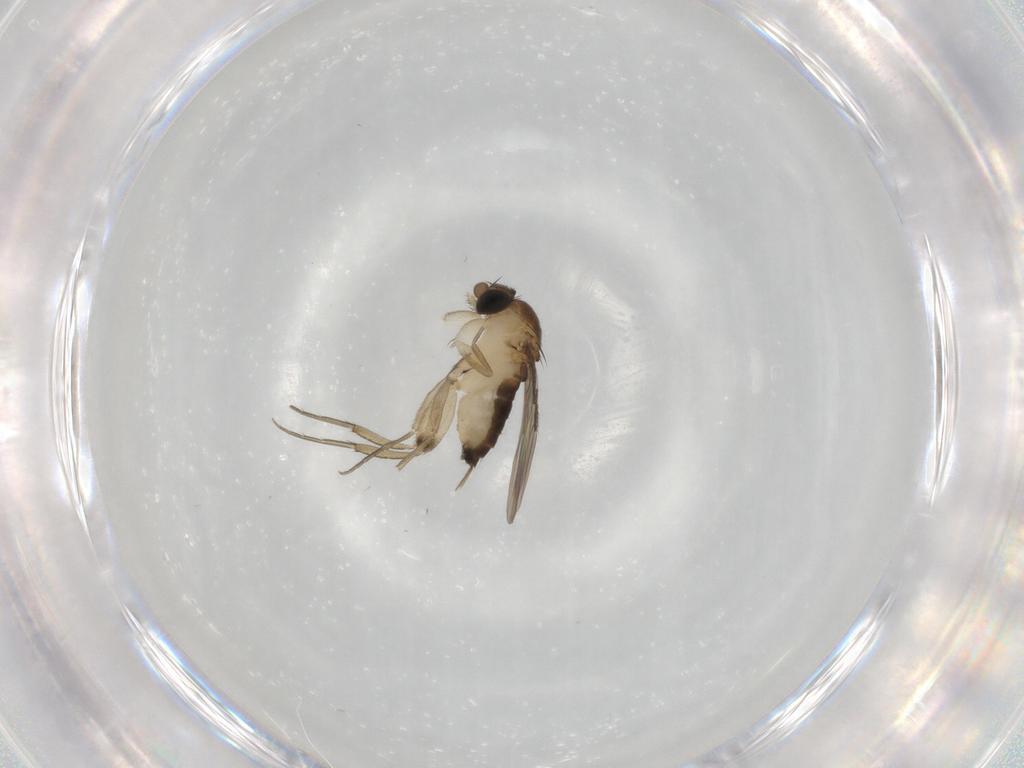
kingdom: Animalia
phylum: Arthropoda
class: Insecta
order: Diptera
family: Phoridae
